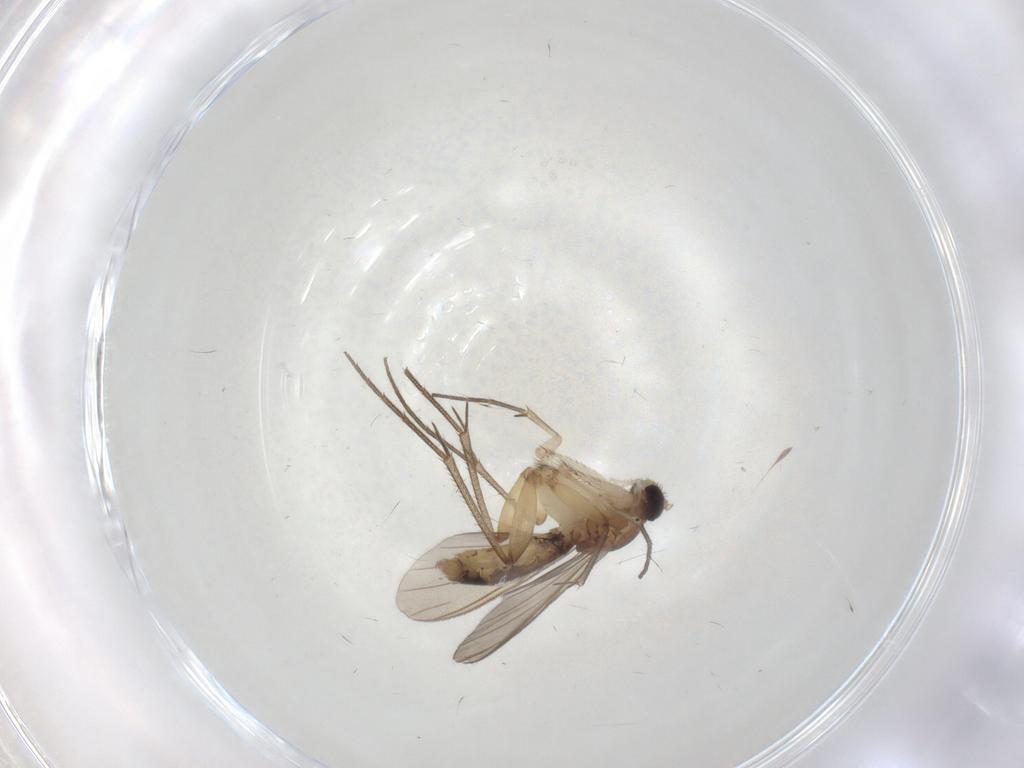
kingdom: Animalia
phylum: Arthropoda
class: Insecta
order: Diptera
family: Mycetophilidae
